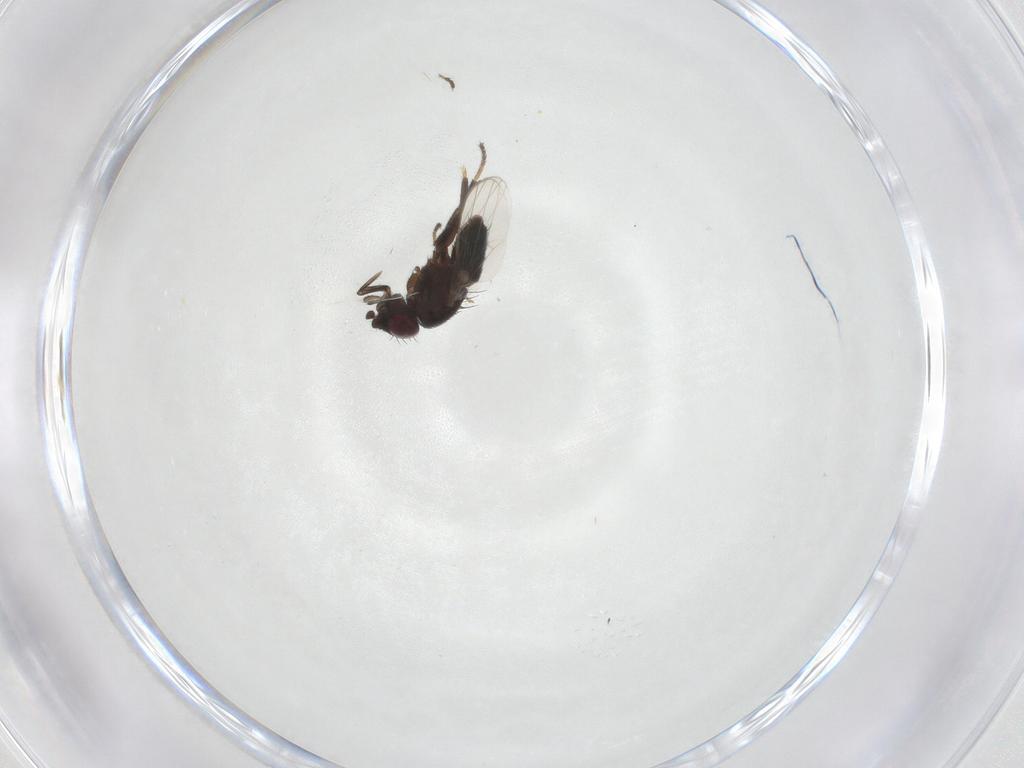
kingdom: Animalia
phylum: Arthropoda
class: Insecta
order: Diptera
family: Milichiidae
